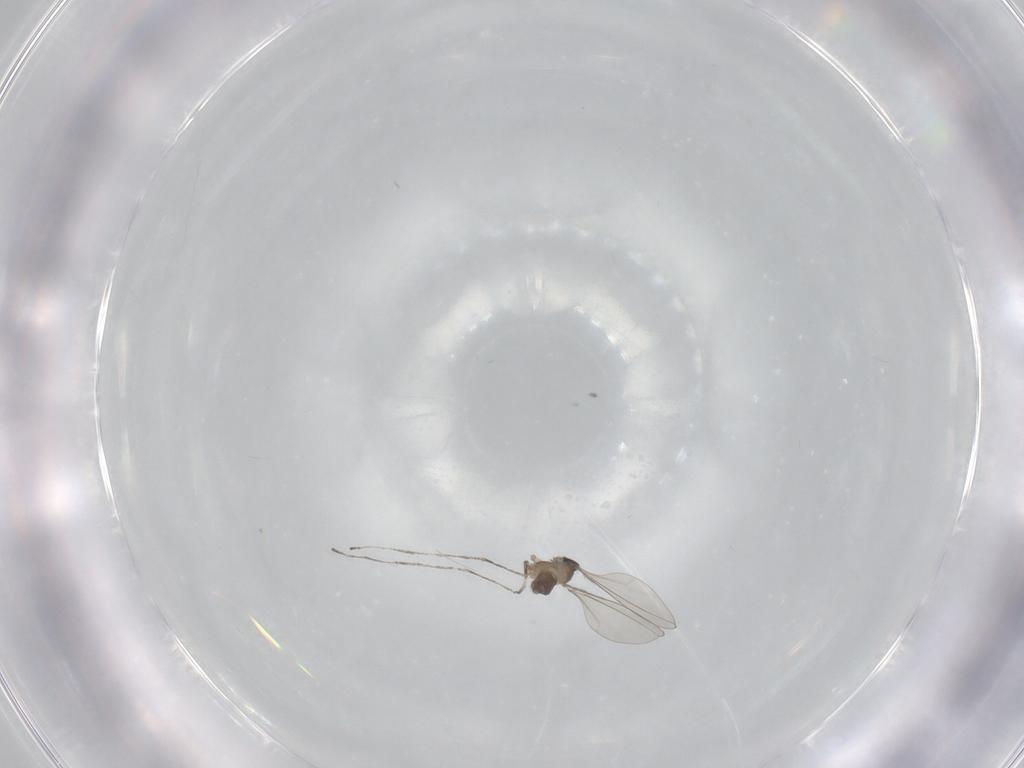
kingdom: Animalia
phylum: Arthropoda
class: Insecta
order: Diptera
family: Cecidomyiidae
